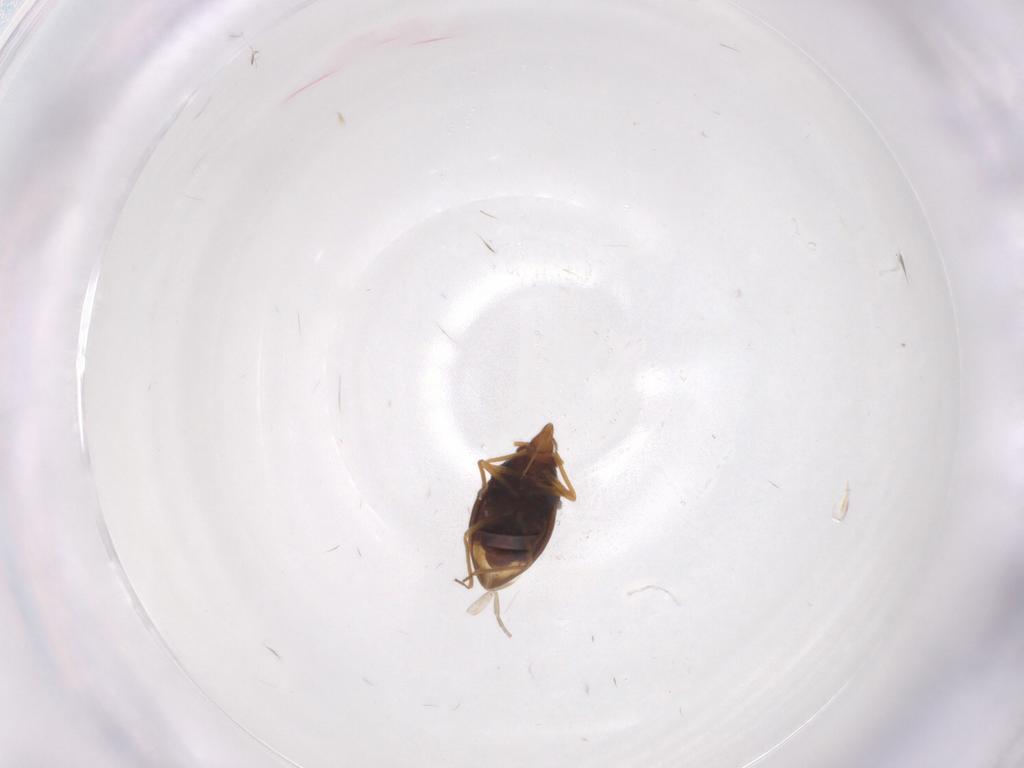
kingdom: Animalia
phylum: Arthropoda
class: Insecta
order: Hemiptera
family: Schizopteridae
